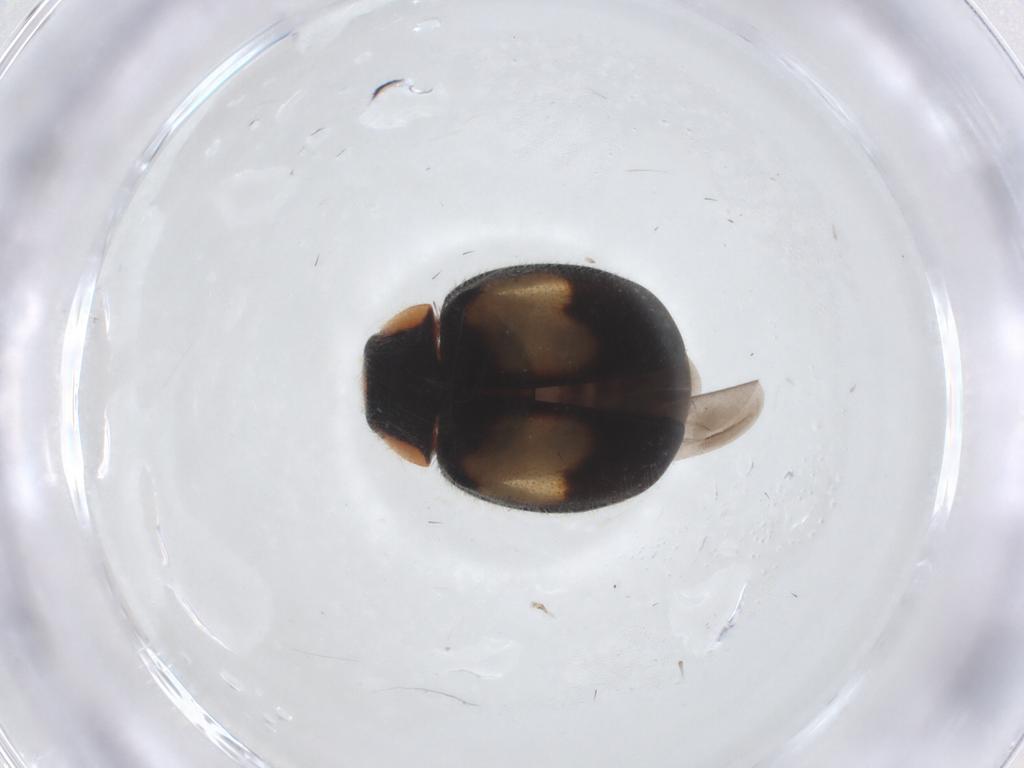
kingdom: Animalia
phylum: Arthropoda
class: Insecta
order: Coleoptera
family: Coccinellidae
